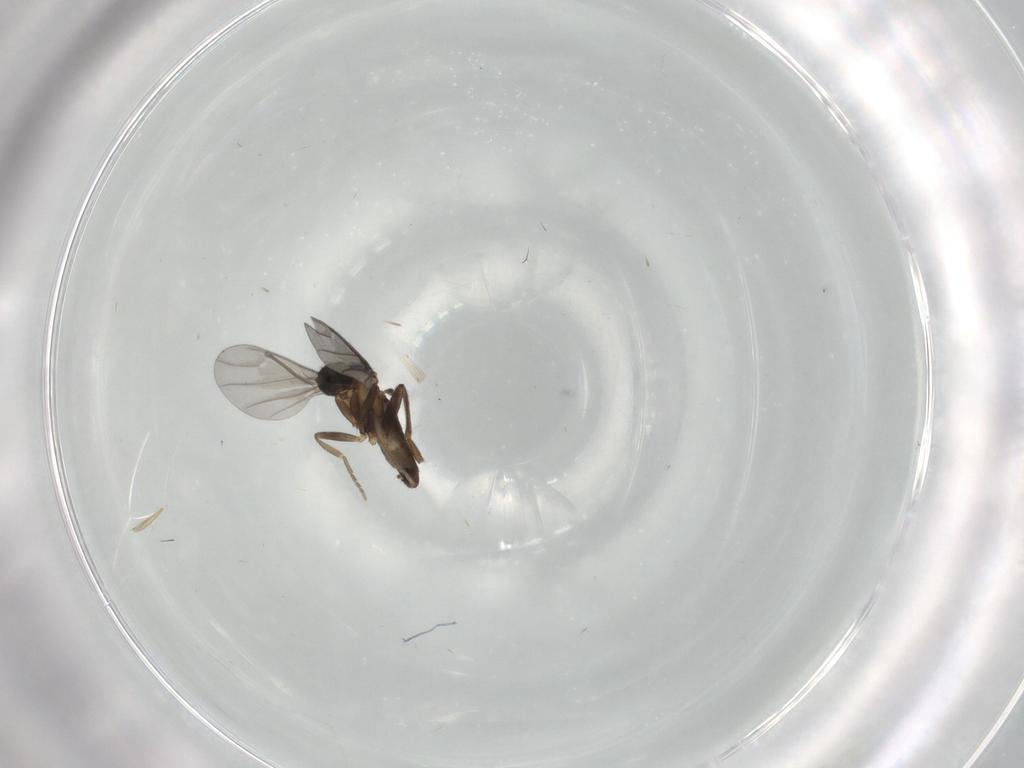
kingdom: Animalia
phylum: Arthropoda
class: Insecta
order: Diptera
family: Phoridae
